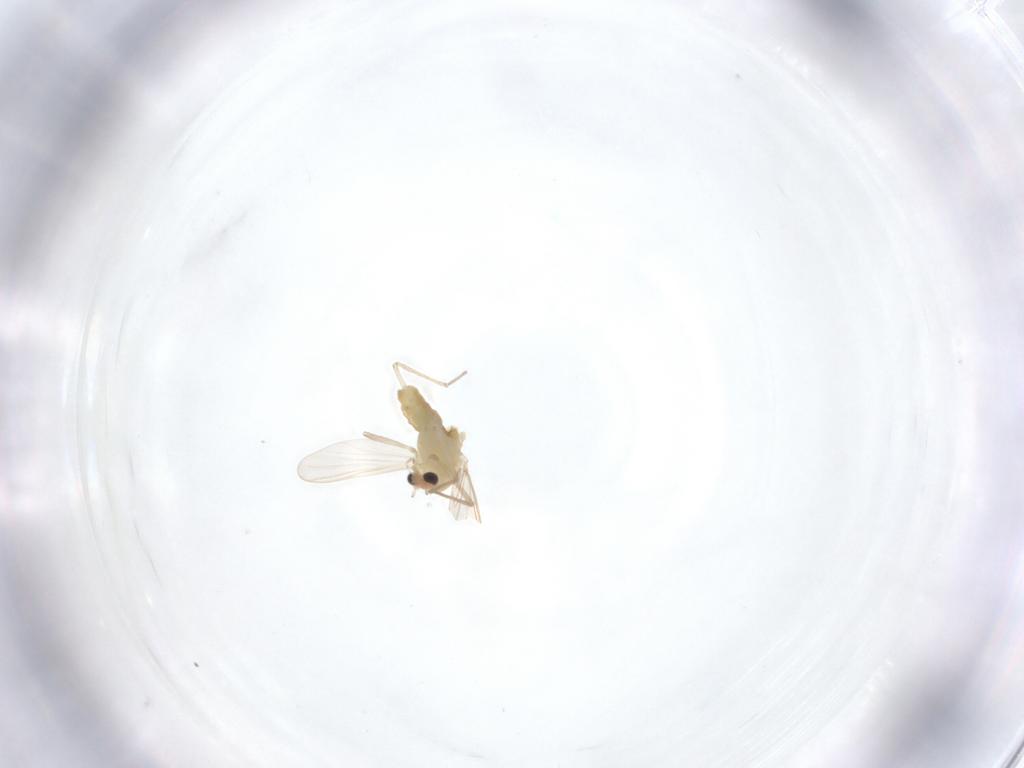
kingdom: Animalia
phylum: Arthropoda
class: Insecta
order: Diptera
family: Chironomidae
